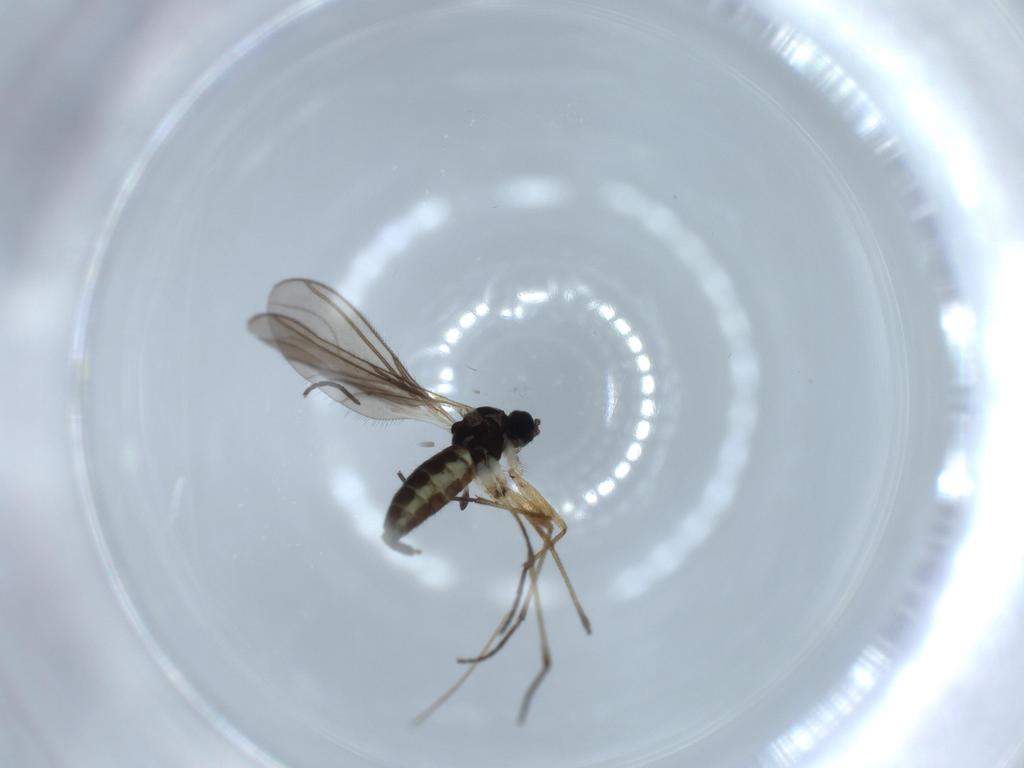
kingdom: Animalia
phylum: Arthropoda
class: Insecta
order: Diptera
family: Sciaridae
